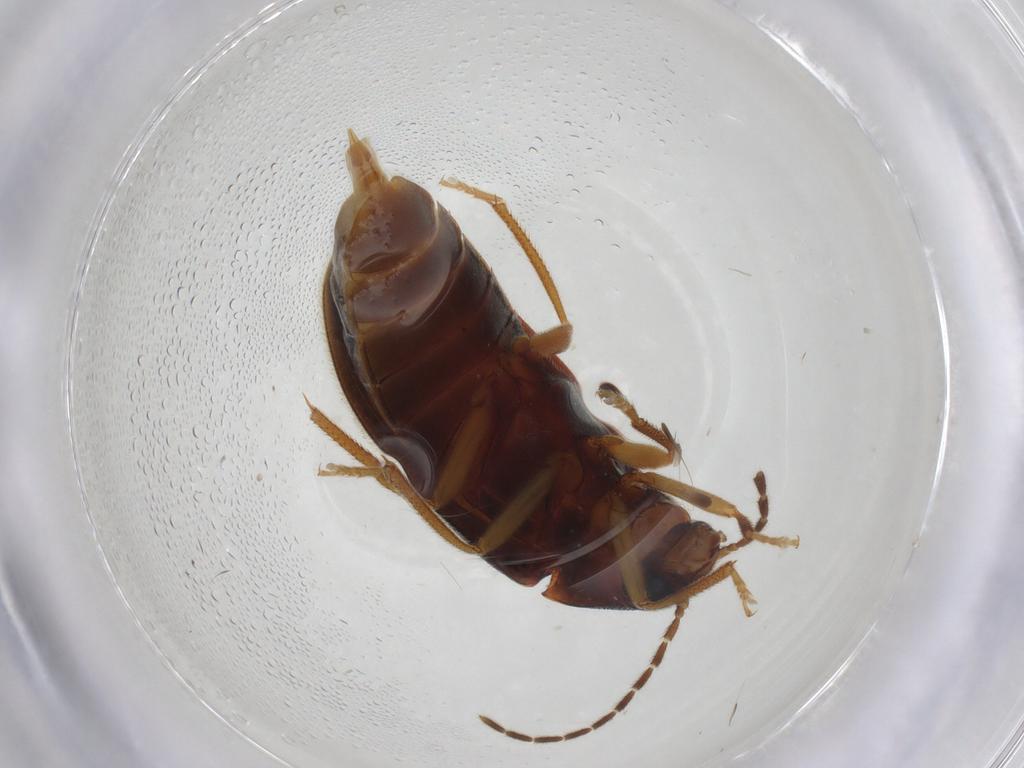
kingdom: Animalia
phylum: Arthropoda
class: Insecta
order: Coleoptera
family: Ptilodactylidae
